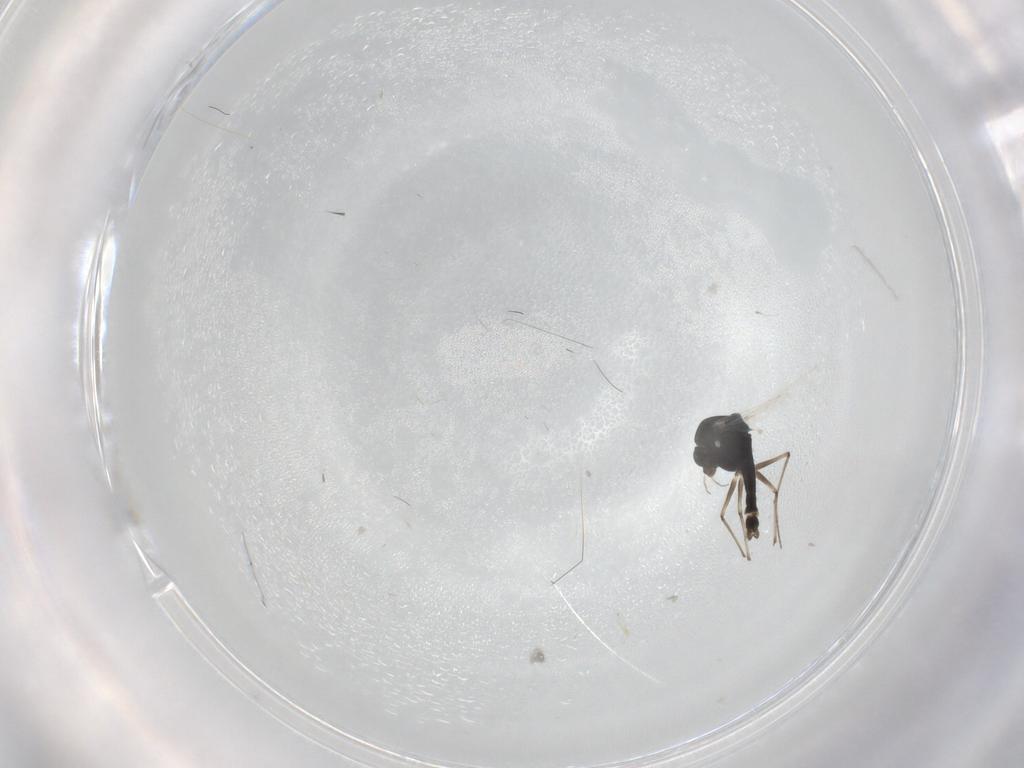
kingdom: Animalia
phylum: Arthropoda
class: Insecta
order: Diptera
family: Chironomidae
